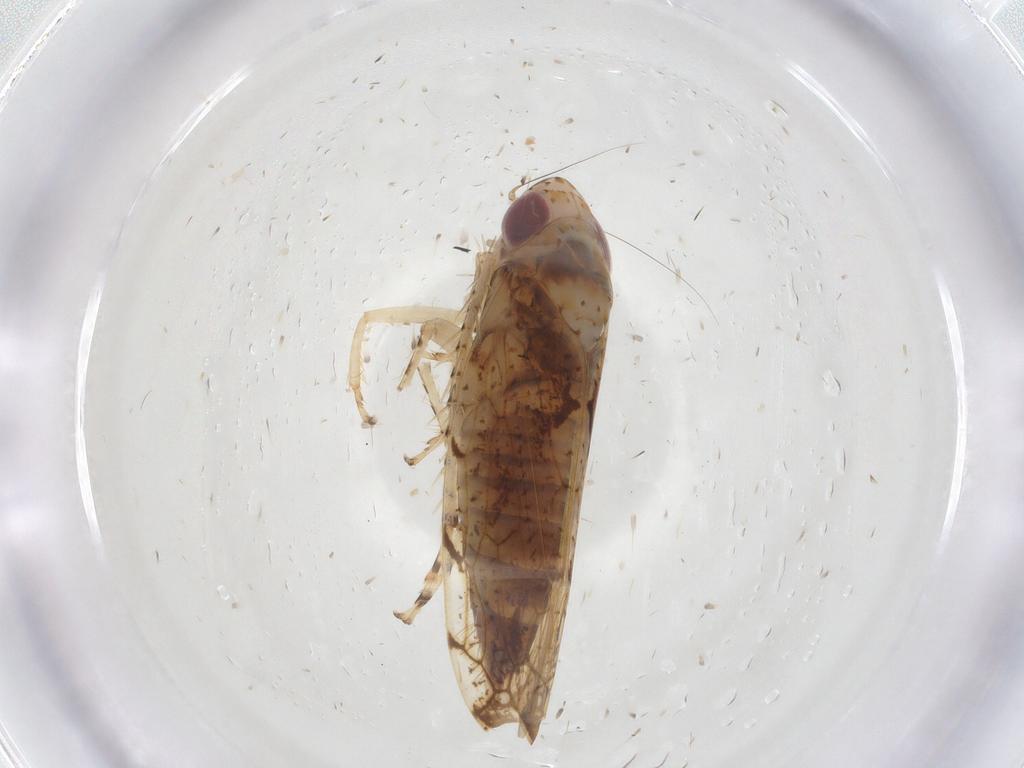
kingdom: Animalia
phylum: Arthropoda
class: Insecta
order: Hemiptera
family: Cicadellidae
